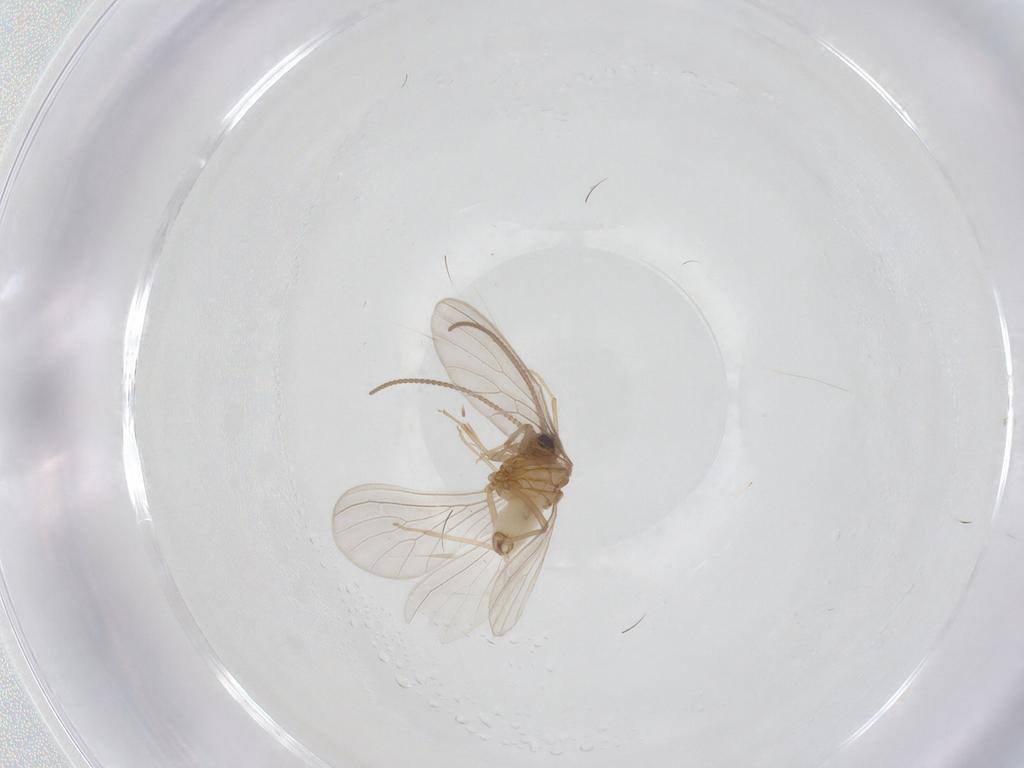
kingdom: Animalia
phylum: Arthropoda
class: Insecta
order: Neuroptera
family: Coniopterygidae
